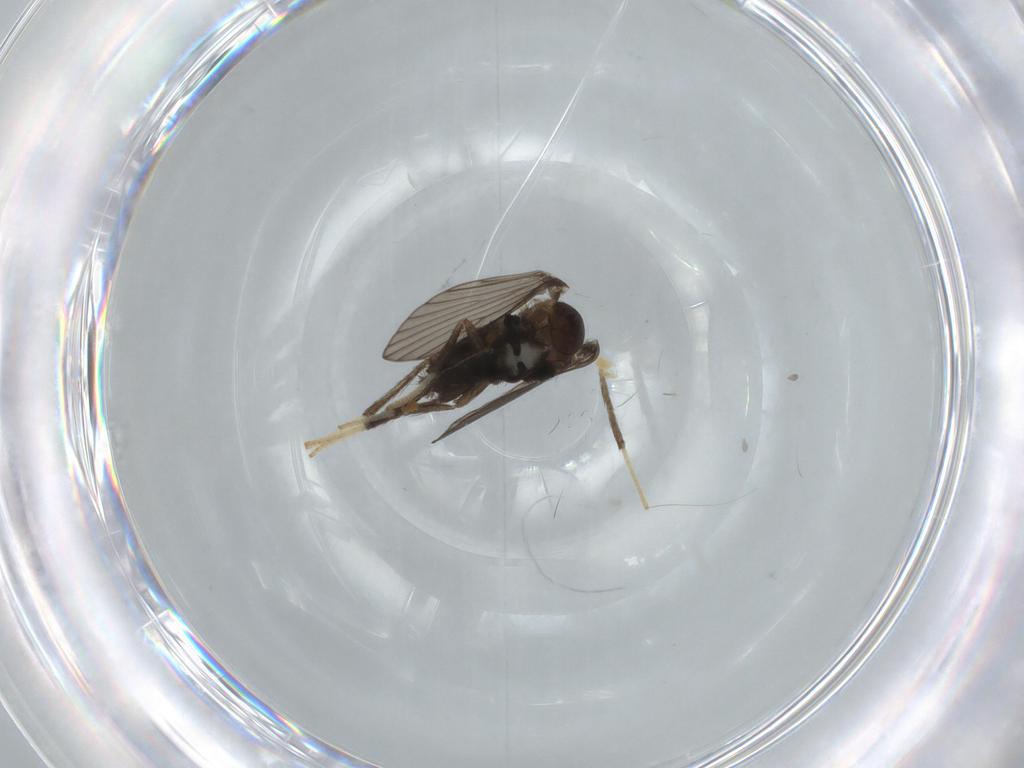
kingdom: Animalia
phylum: Arthropoda
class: Insecta
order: Diptera
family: Psychodidae
